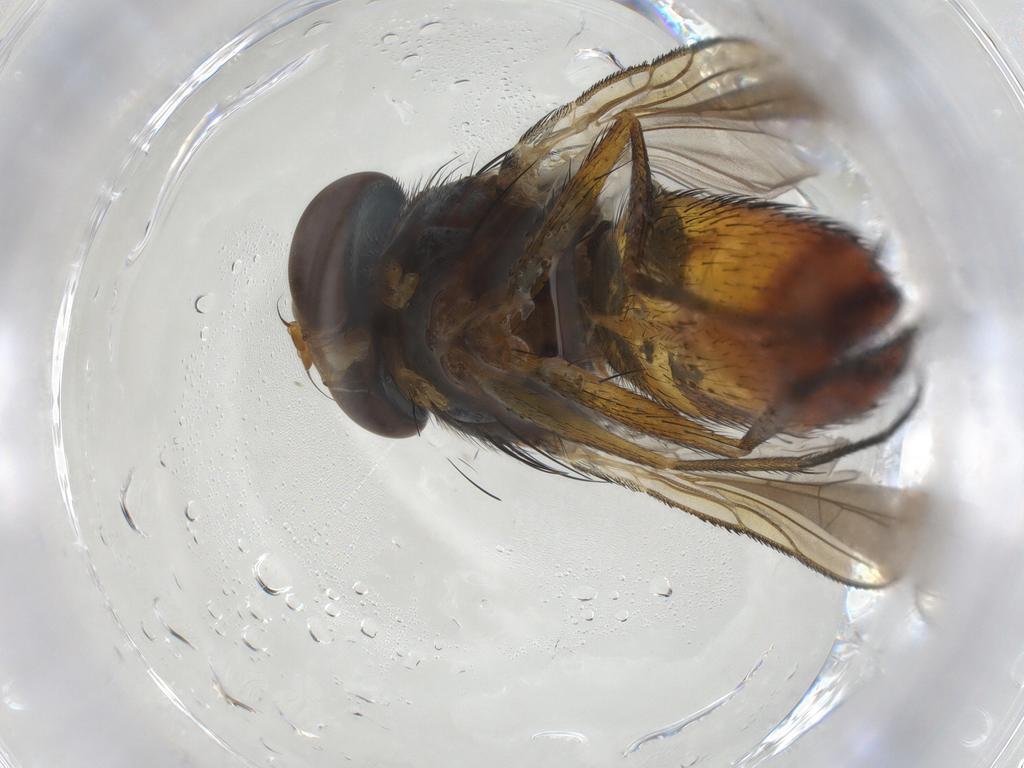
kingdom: Animalia
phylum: Arthropoda
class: Insecta
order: Diptera
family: Tachinidae
